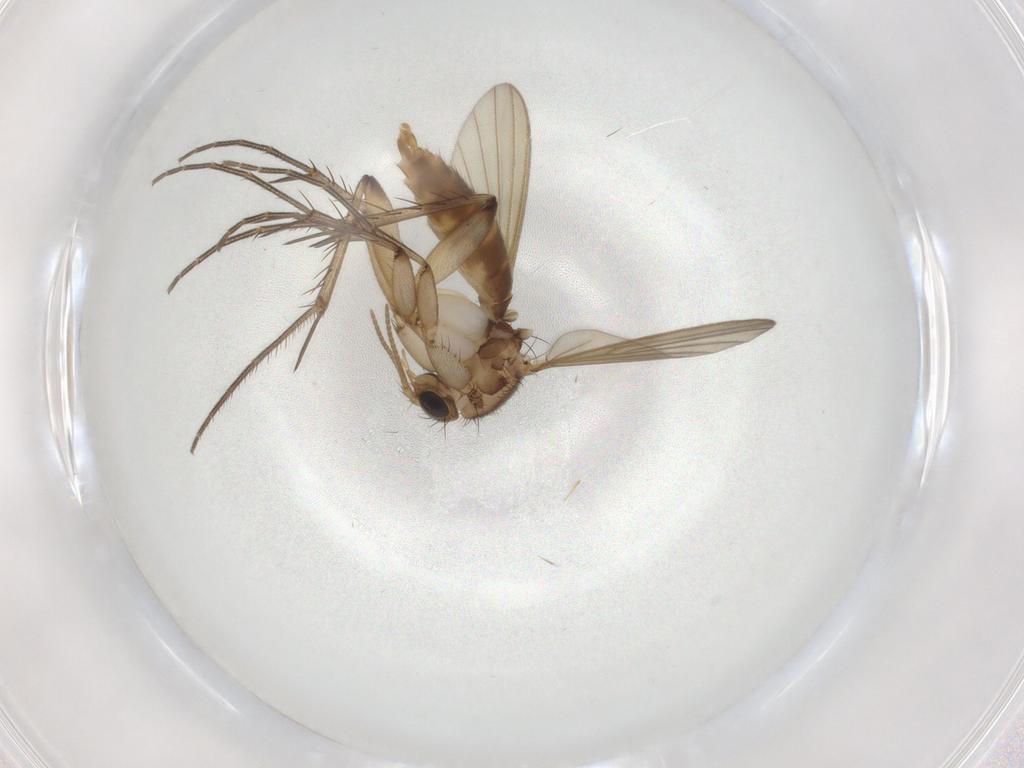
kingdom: Animalia
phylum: Arthropoda
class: Insecta
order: Diptera
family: Mycetophilidae
